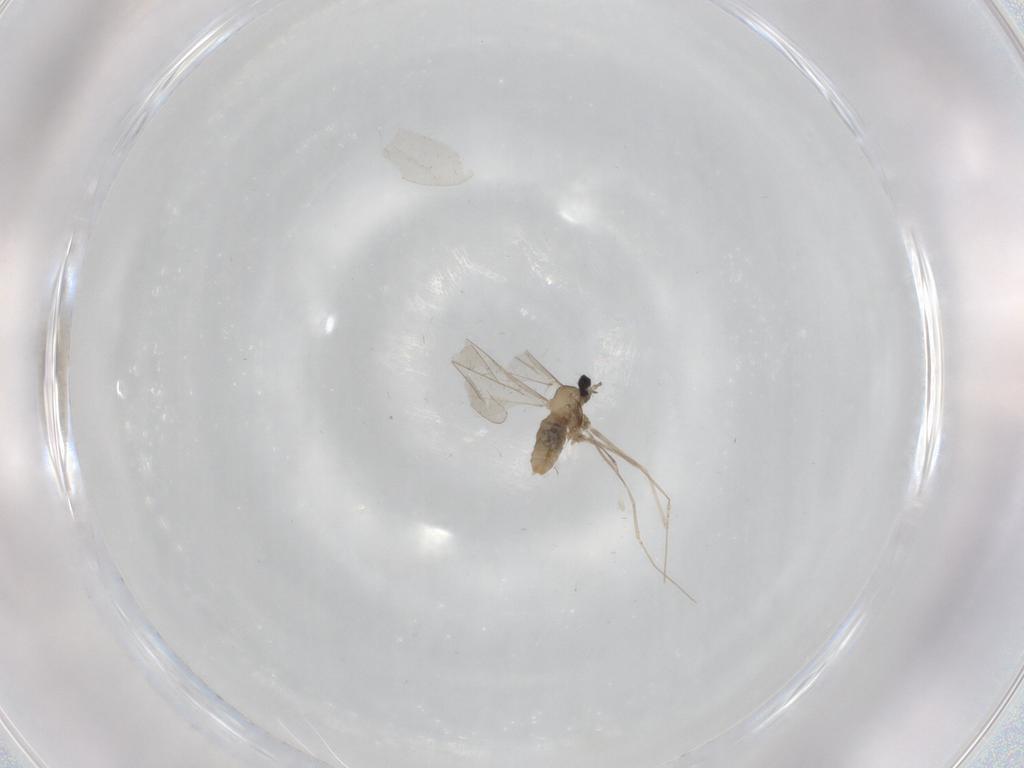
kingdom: Animalia
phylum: Arthropoda
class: Insecta
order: Diptera
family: Cecidomyiidae
